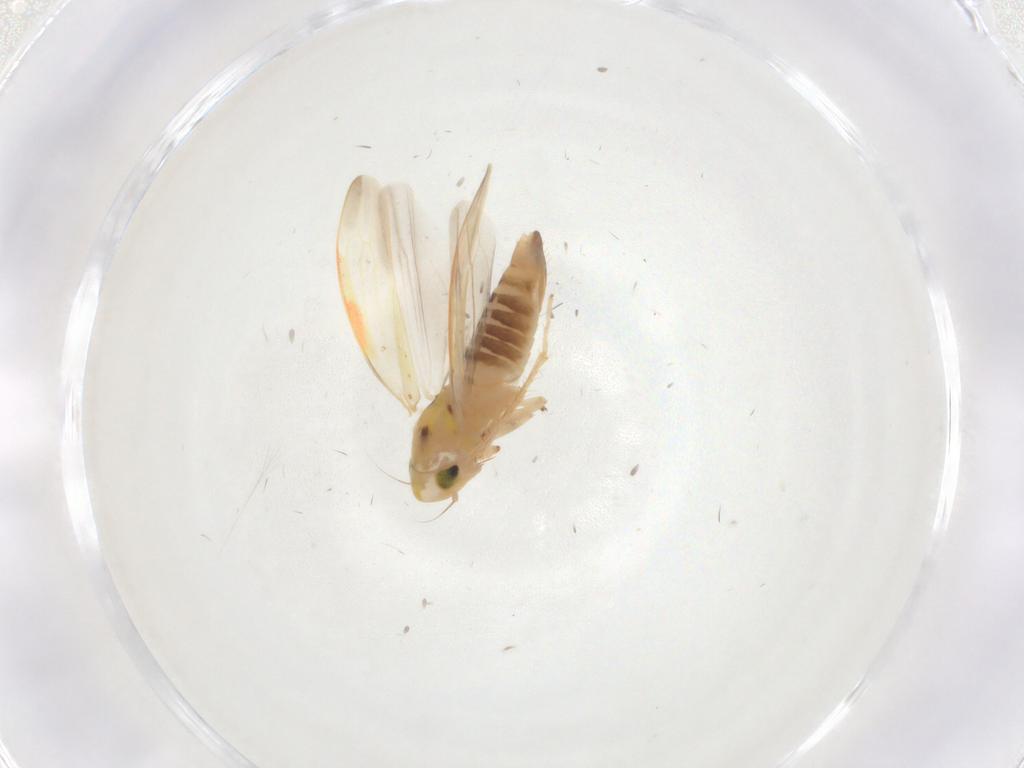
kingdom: Animalia
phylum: Arthropoda
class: Insecta
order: Hemiptera
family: Cicadellidae
